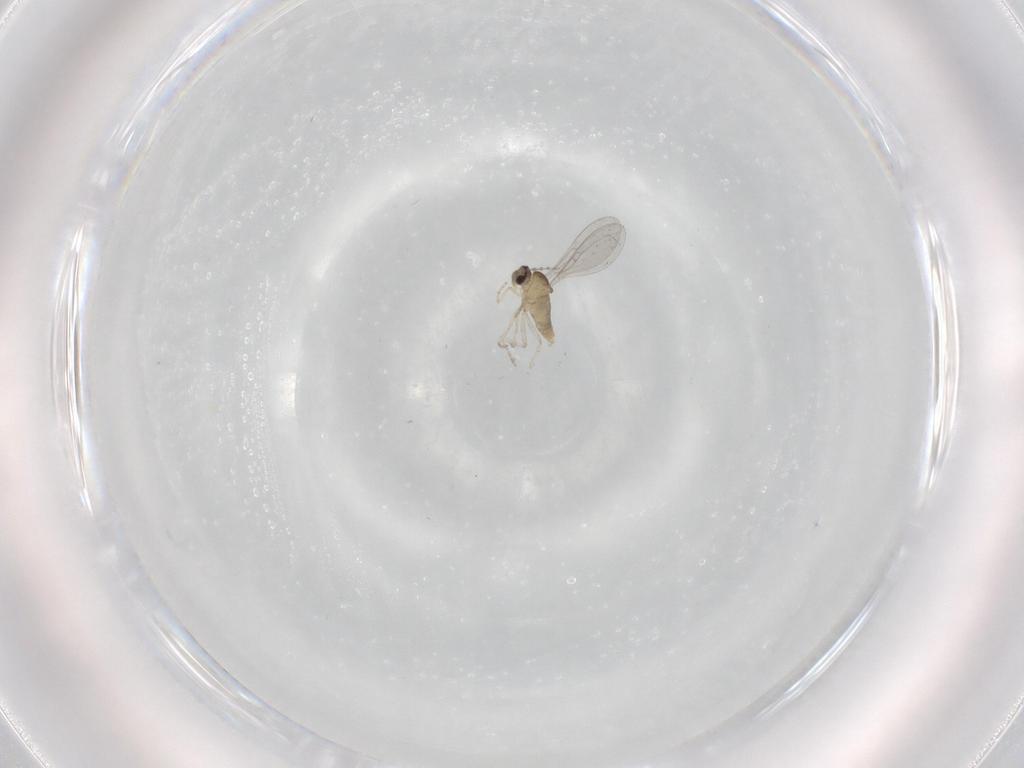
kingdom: Animalia
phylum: Arthropoda
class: Insecta
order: Diptera
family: Cecidomyiidae
